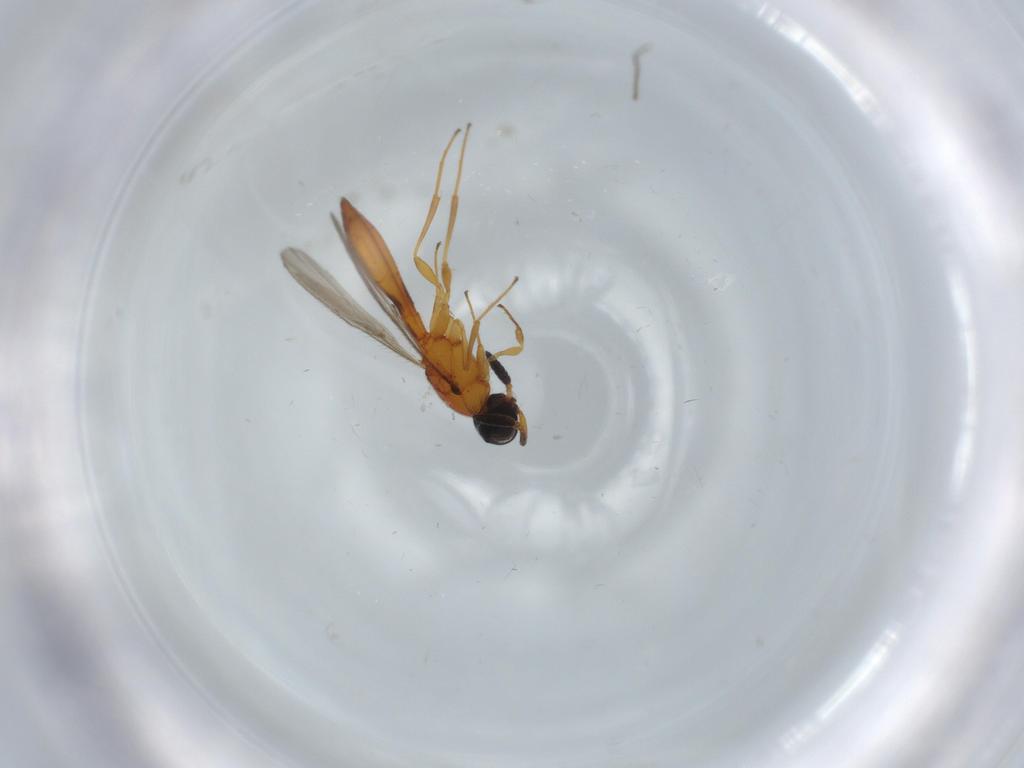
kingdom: Animalia
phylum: Arthropoda
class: Insecta
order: Hymenoptera
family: Scelionidae
